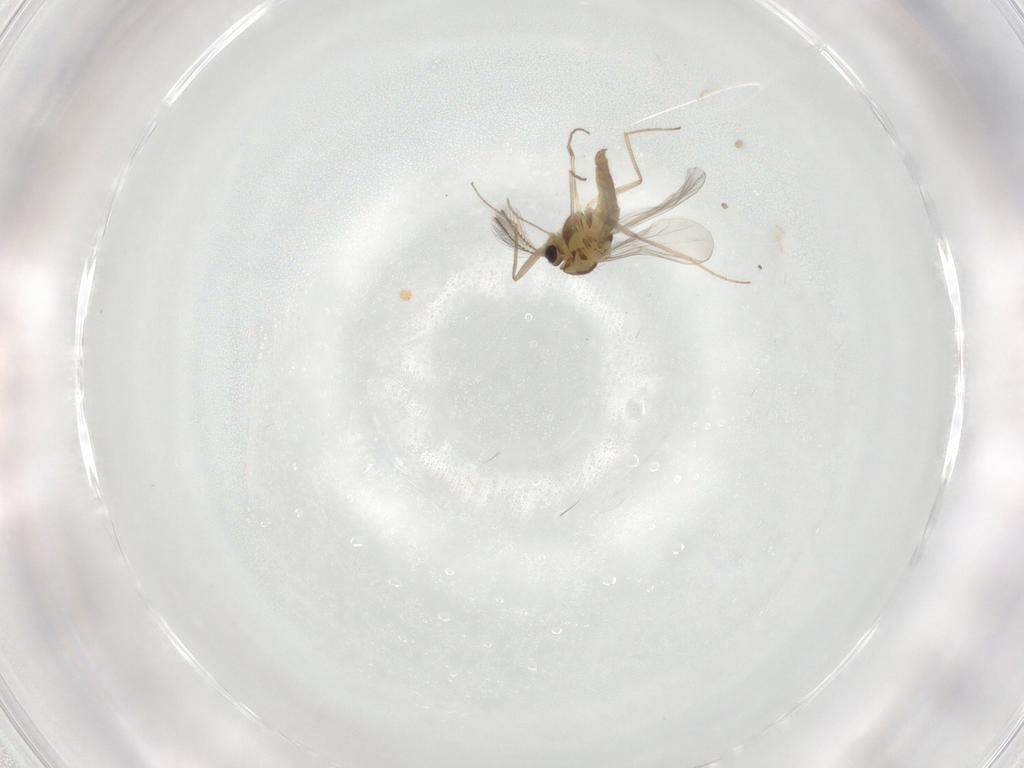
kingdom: Animalia
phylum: Arthropoda
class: Insecta
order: Diptera
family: Chironomidae
